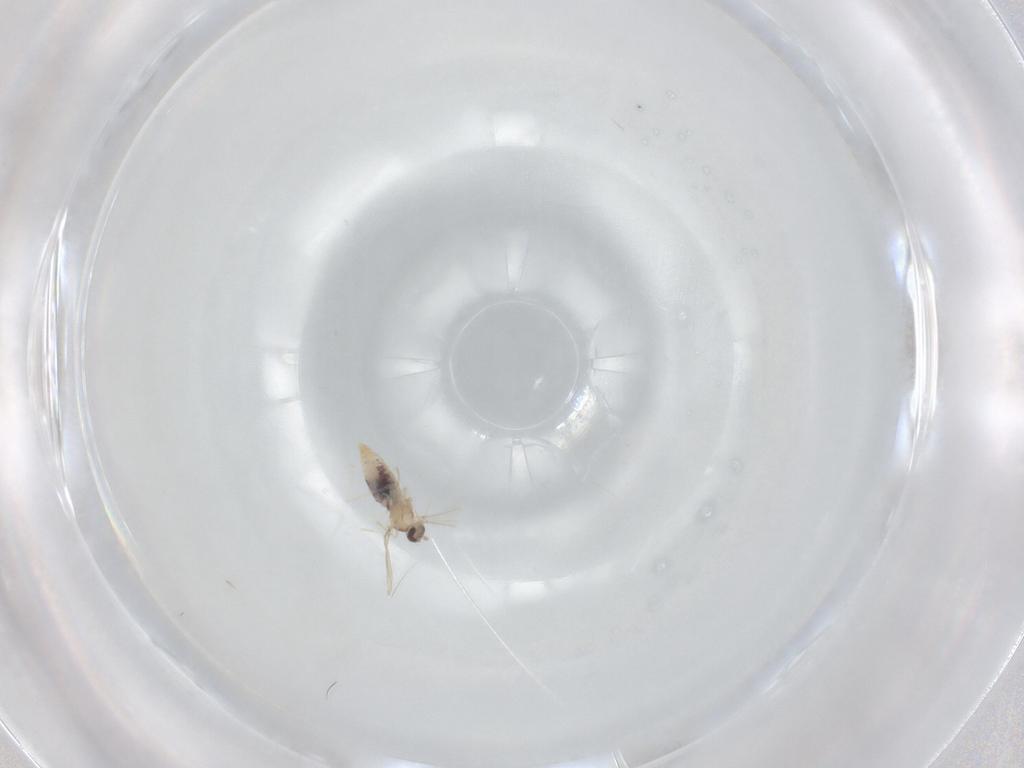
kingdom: Animalia
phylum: Arthropoda
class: Insecta
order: Diptera
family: Cecidomyiidae
